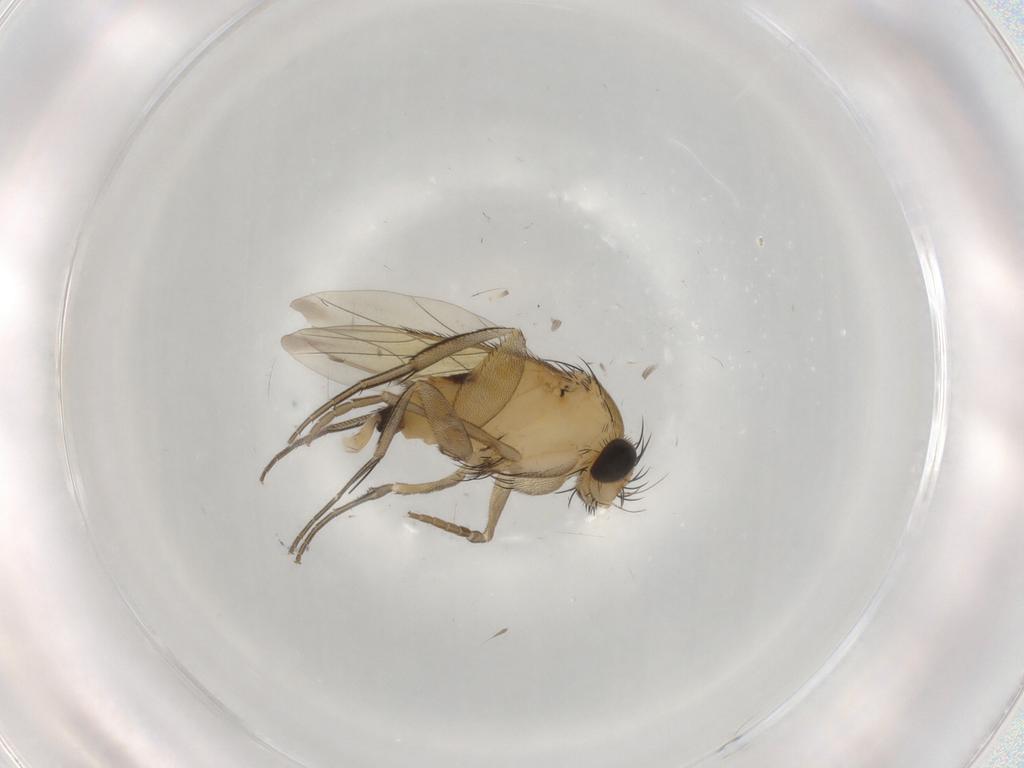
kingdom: Animalia
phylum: Arthropoda
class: Insecta
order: Diptera
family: Phoridae
